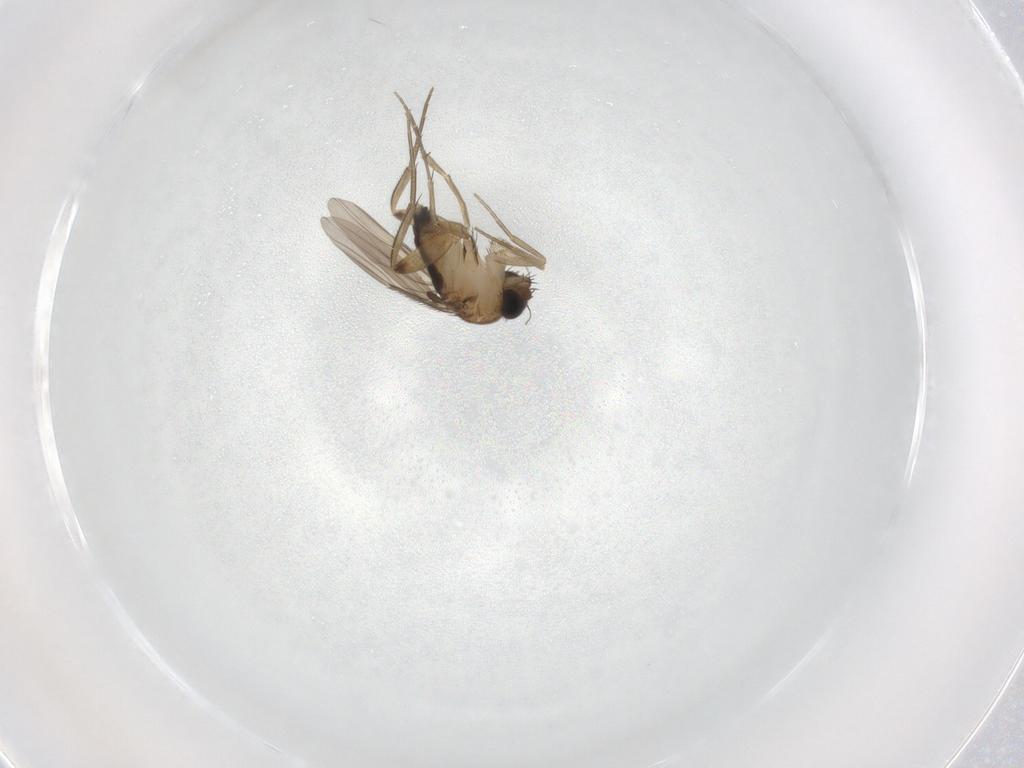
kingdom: Animalia
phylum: Arthropoda
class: Insecta
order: Diptera
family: Phoridae
